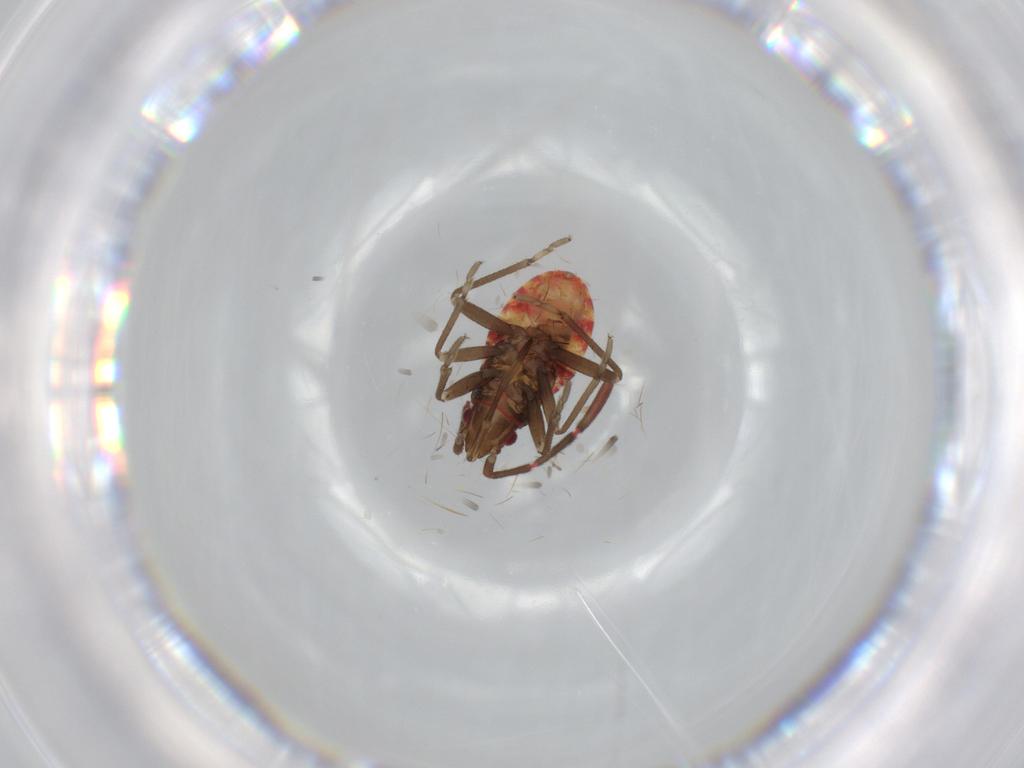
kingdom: Animalia
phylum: Arthropoda
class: Insecta
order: Hemiptera
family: Rhyparochromidae
